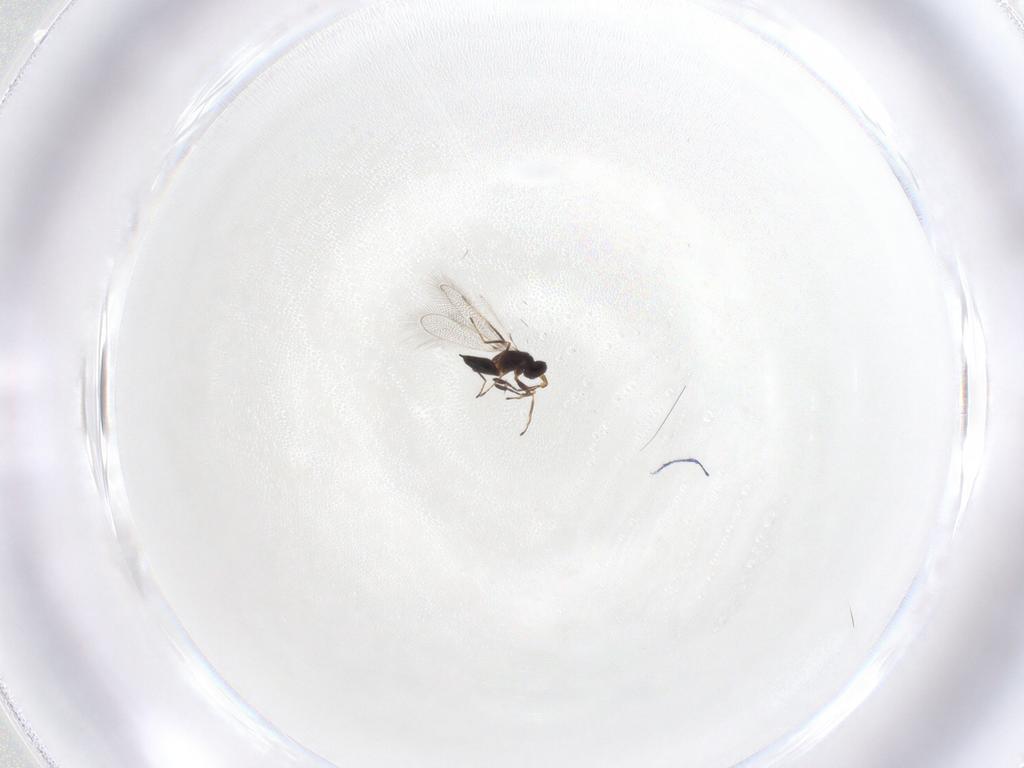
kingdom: Animalia
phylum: Arthropoda
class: Insecta
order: Hymenoptera
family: Mymaridae
